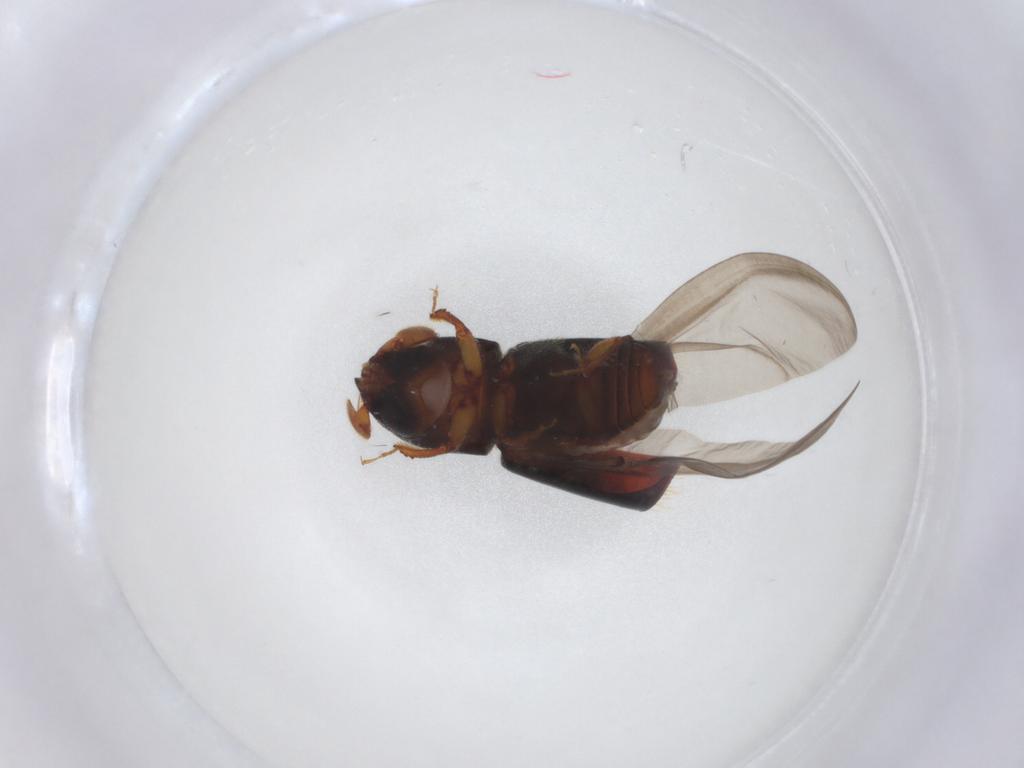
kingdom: Animalia
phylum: Arthropoda
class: Insecta
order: Coleoptera
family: Curculionidae
